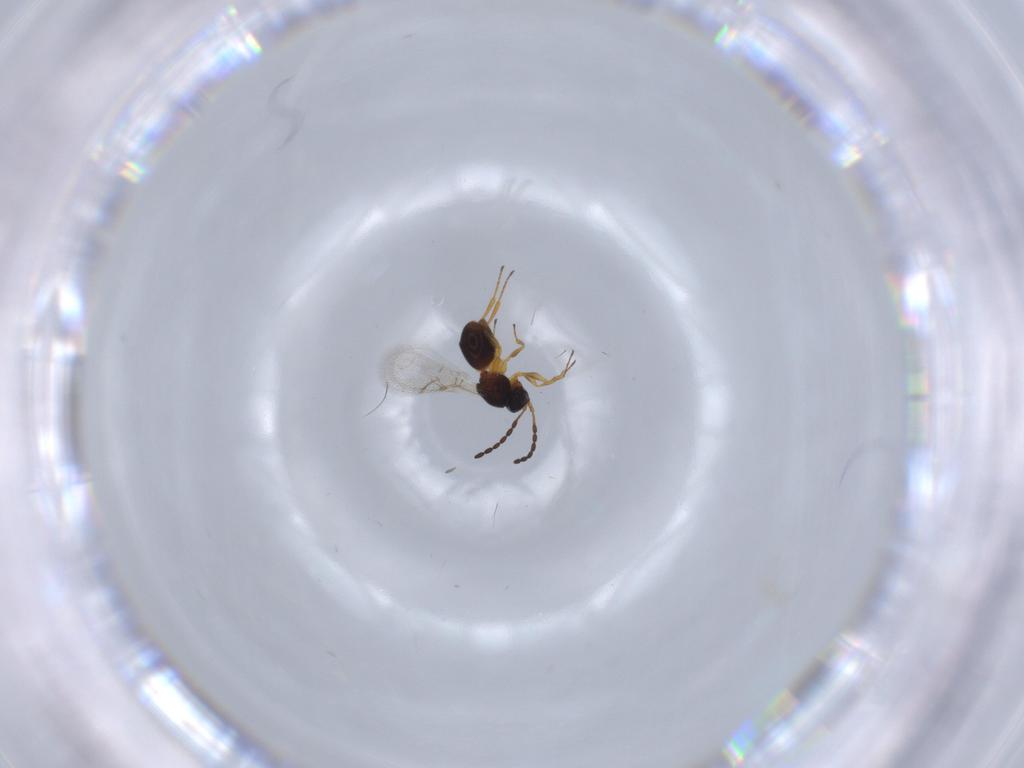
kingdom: Animalia
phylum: Arthropoda
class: Insecta
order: Hymenoptera
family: Figitidae
